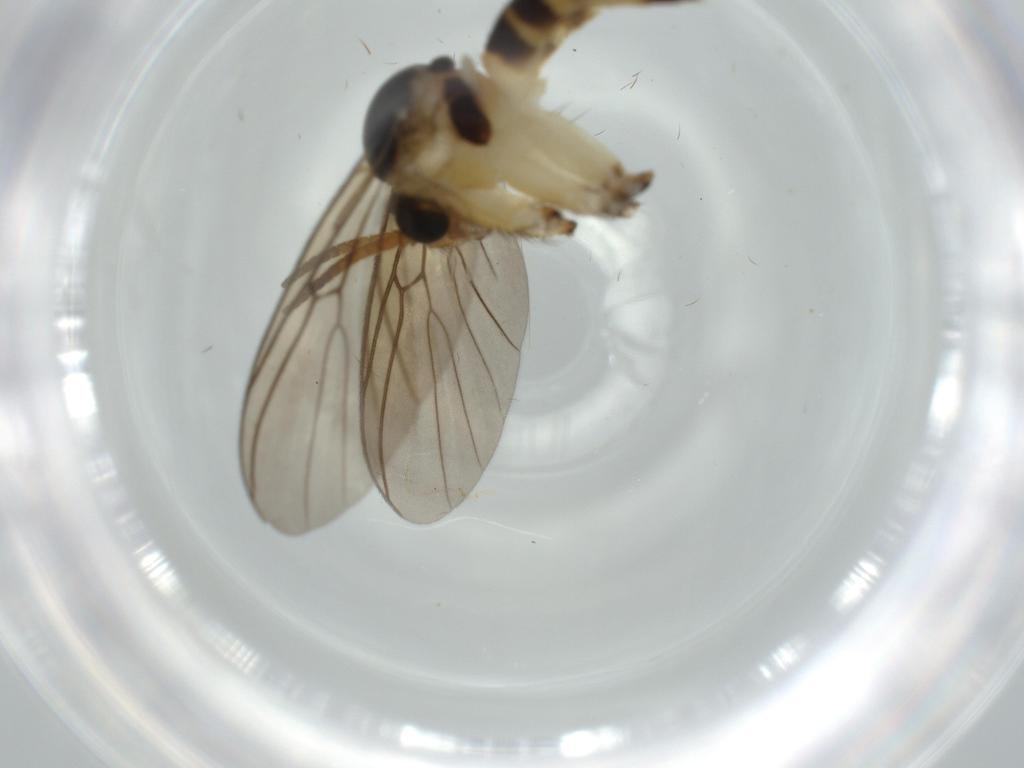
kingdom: Animalia
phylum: Arthropoda
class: Insecta
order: Diptera
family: Mycetophilidae
